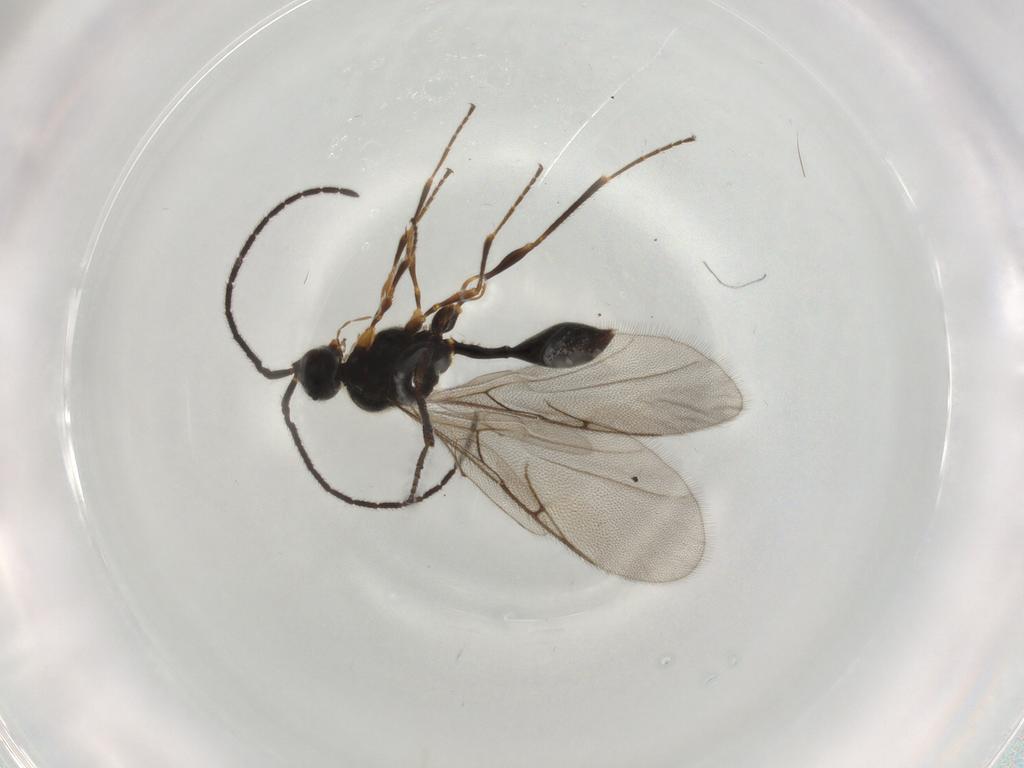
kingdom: Animalia
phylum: Arthropoda
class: Insecta
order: Hymenoptera
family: Diapriidae
